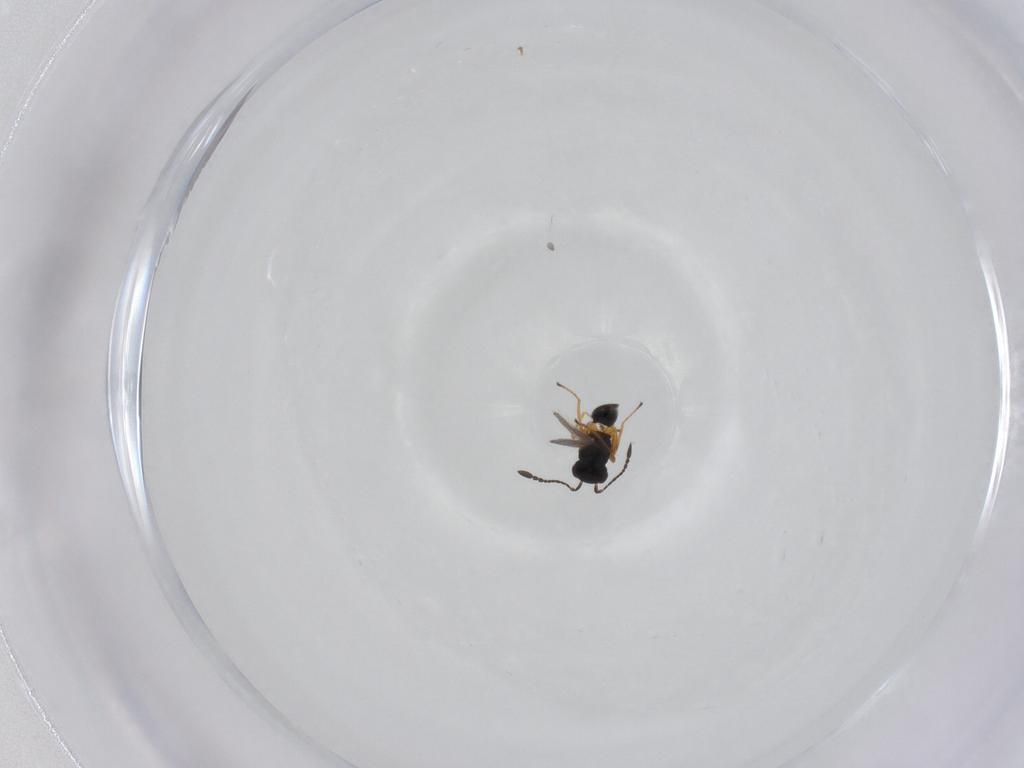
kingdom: Animalia
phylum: Arthropoda
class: Insecta
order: Hymenoptera
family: Mymaridae
